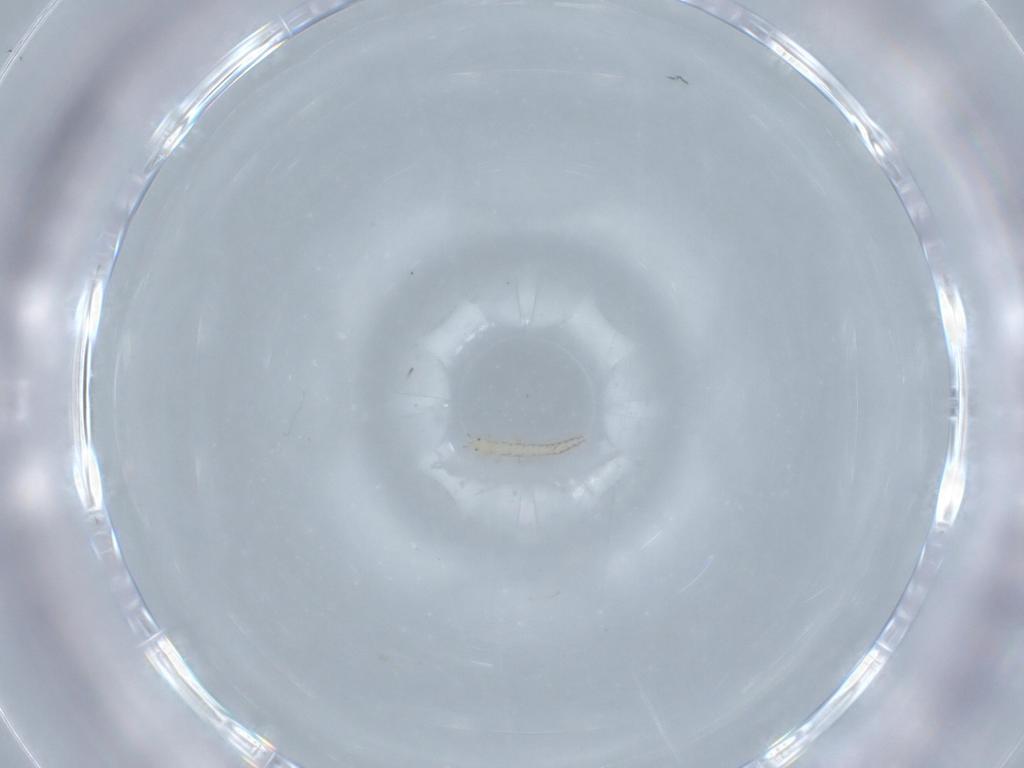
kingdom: Animalia
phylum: Arthropoda
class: Insecta
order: Neuroptera
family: Mantispidae
